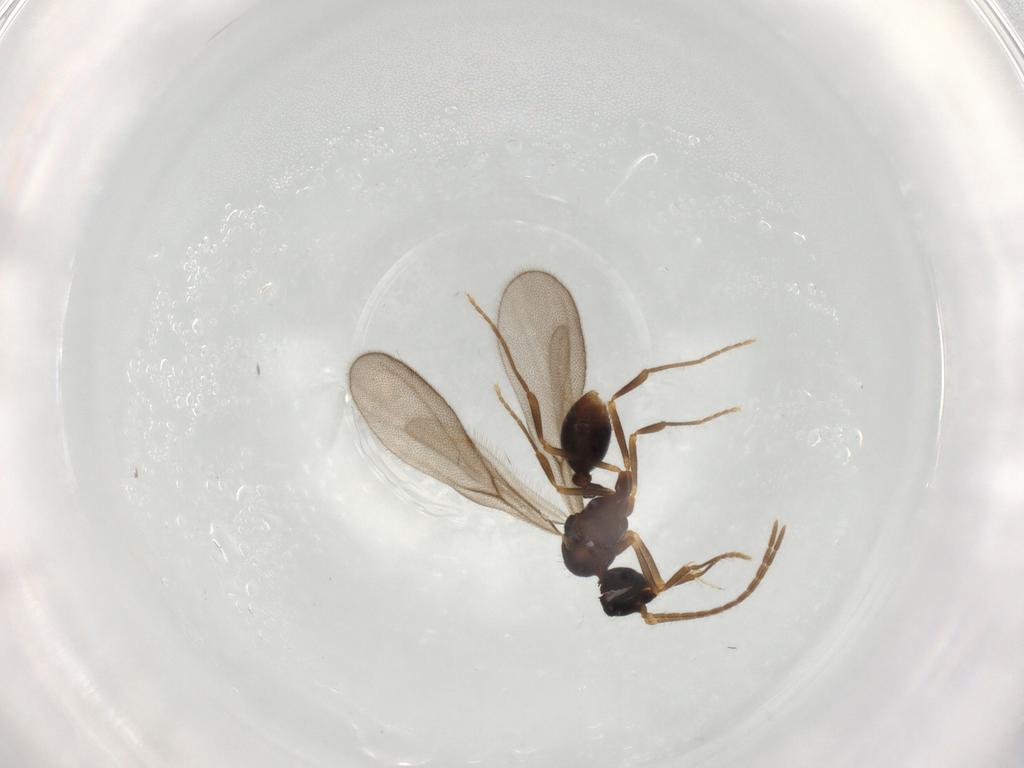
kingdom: Animalia
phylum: Arthropoda
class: Insecta
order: Hymenoptera
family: Formicidae
